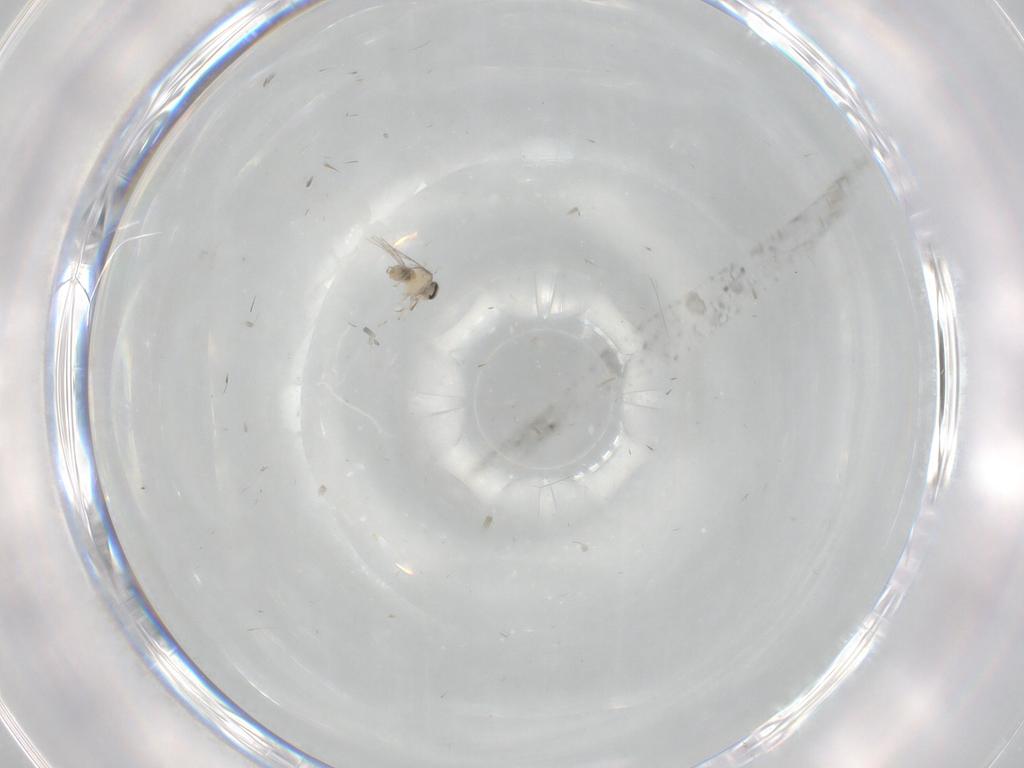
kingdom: Animalia
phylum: Arthropoda
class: Insecta
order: Diptera
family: Cecidomyiidae
